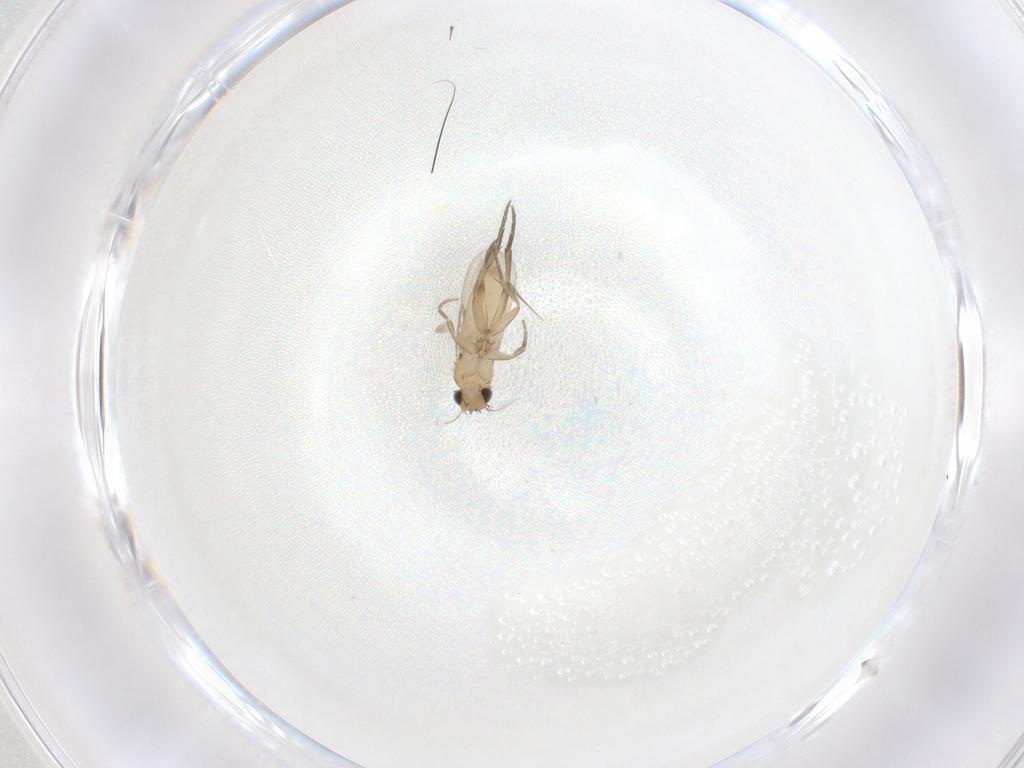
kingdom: Animalia
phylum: Arthropoda
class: Insecta
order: Diptera
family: Phoridae
